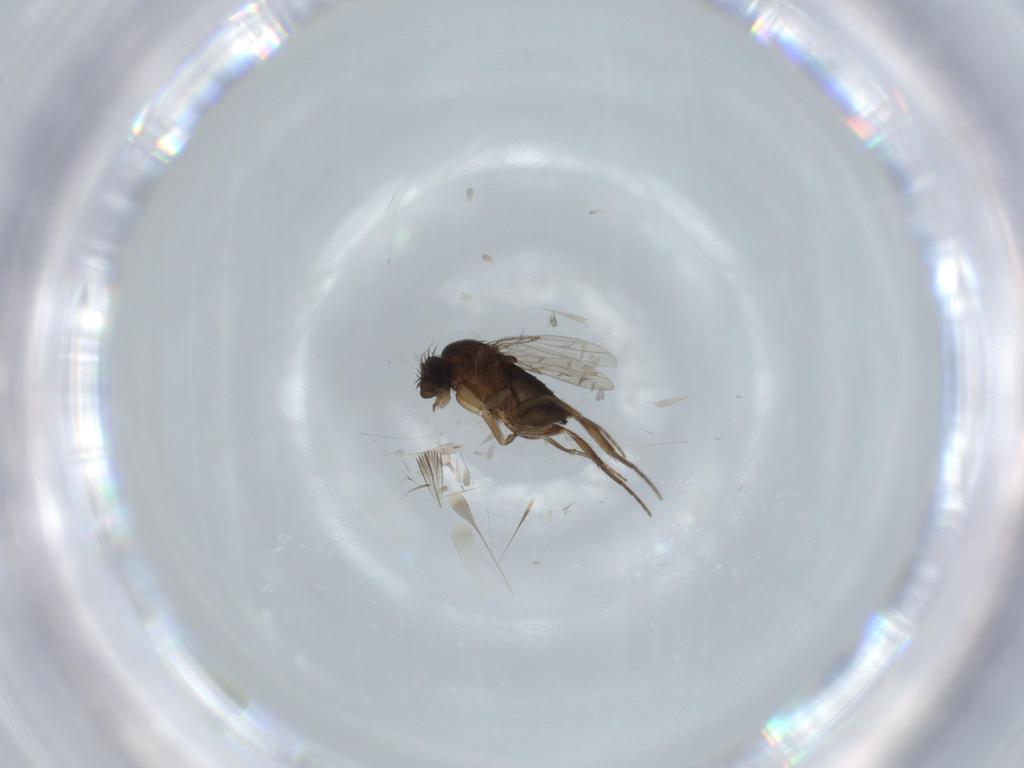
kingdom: Animalia
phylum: Arthropoda
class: Insecta
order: Diptera
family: Phoridae
